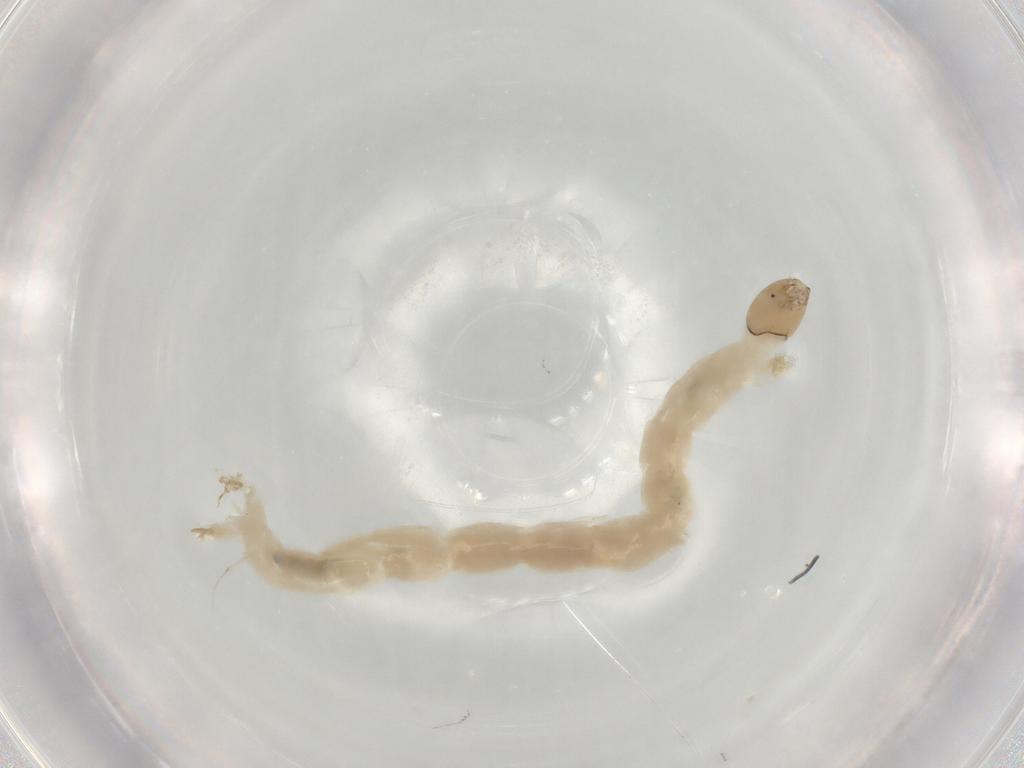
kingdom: Animalia
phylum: Arthropoda
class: Insecta
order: Diptera
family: Chironomidae
